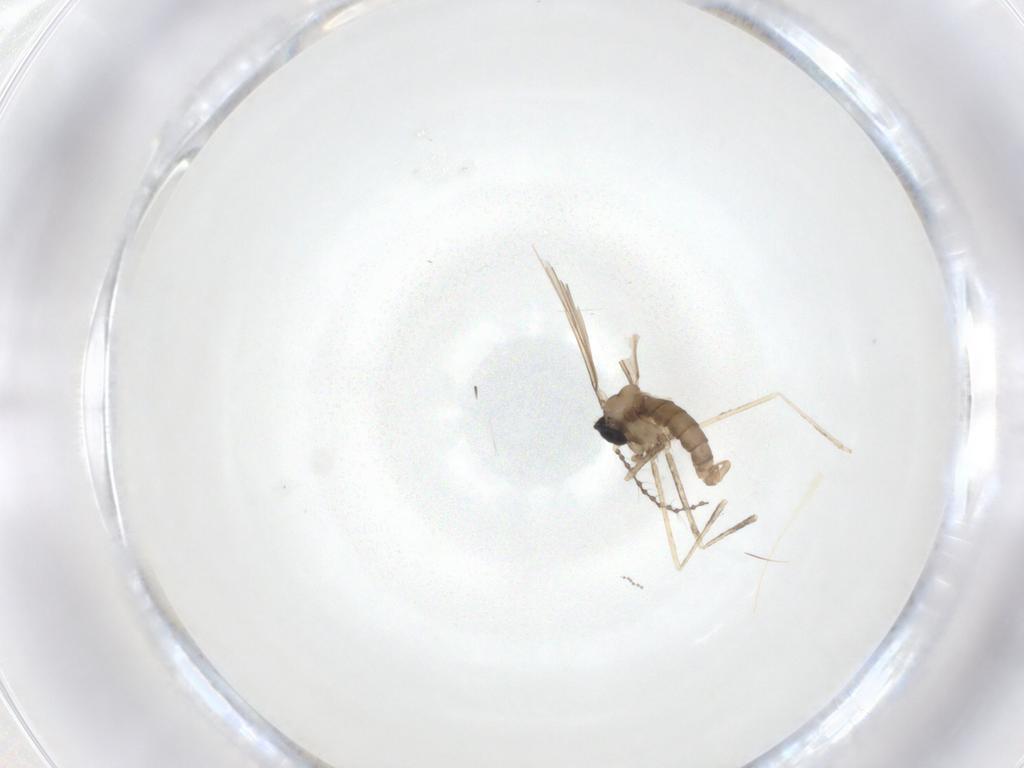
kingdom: Animalia
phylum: Arthropoda
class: Insecta
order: Diptera
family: Cecidomyiidae
